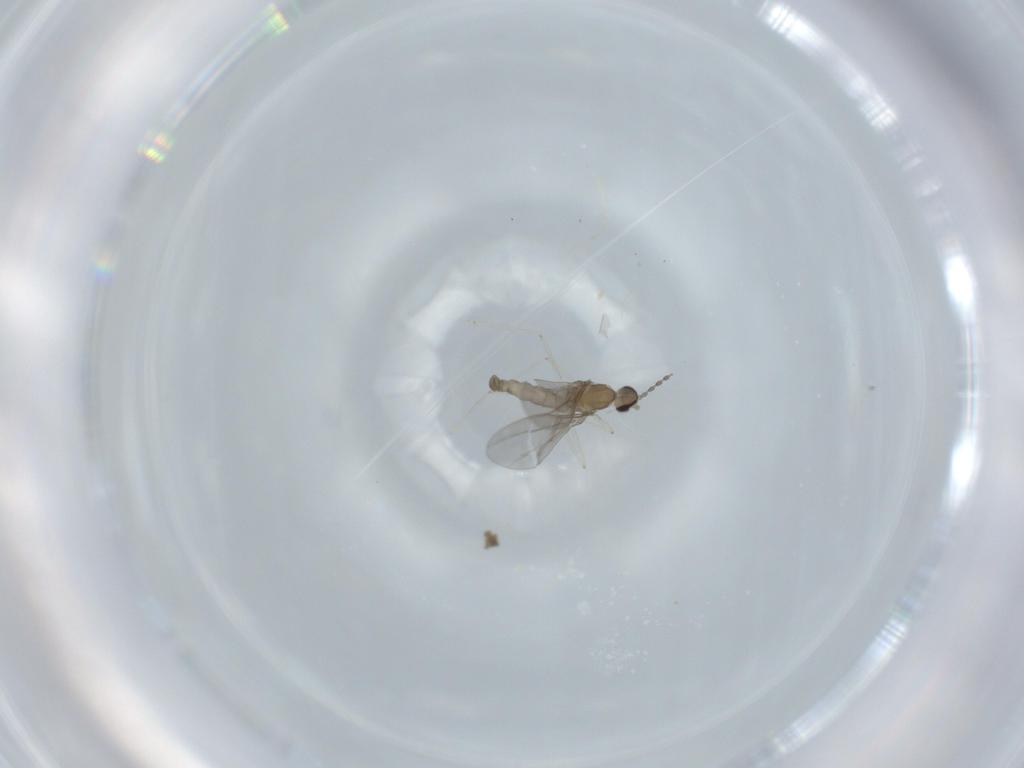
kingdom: Animalia
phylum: Arthropoda
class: Insecta
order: Diptera
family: Cecidomyiidae
